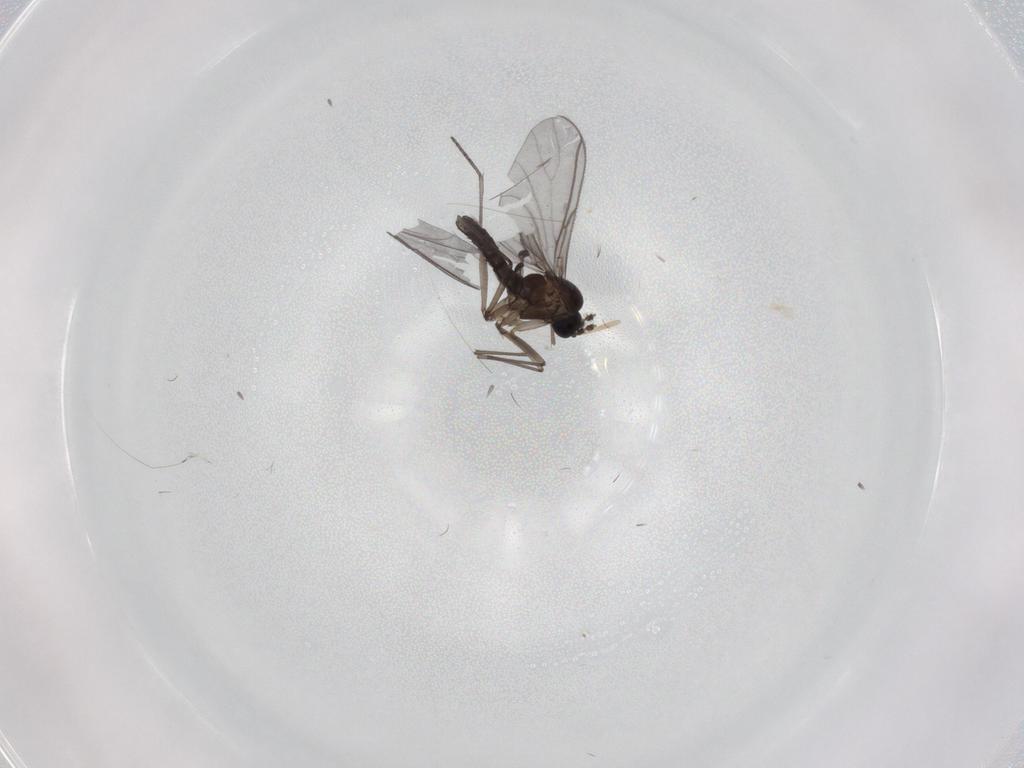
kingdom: Animalia
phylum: Arthropoda
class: Insecta
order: Diptera
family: Sciaridae
